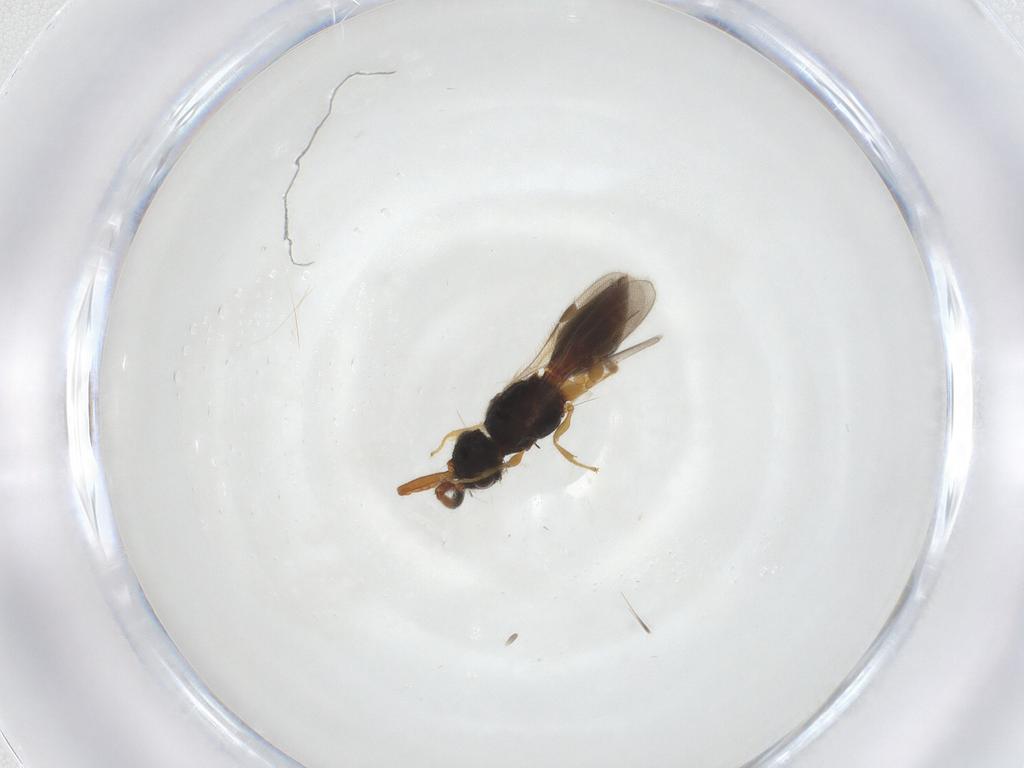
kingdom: Animalia
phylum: Arthropoda
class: Insecta
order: Hymenoptera
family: Megaspilidae
